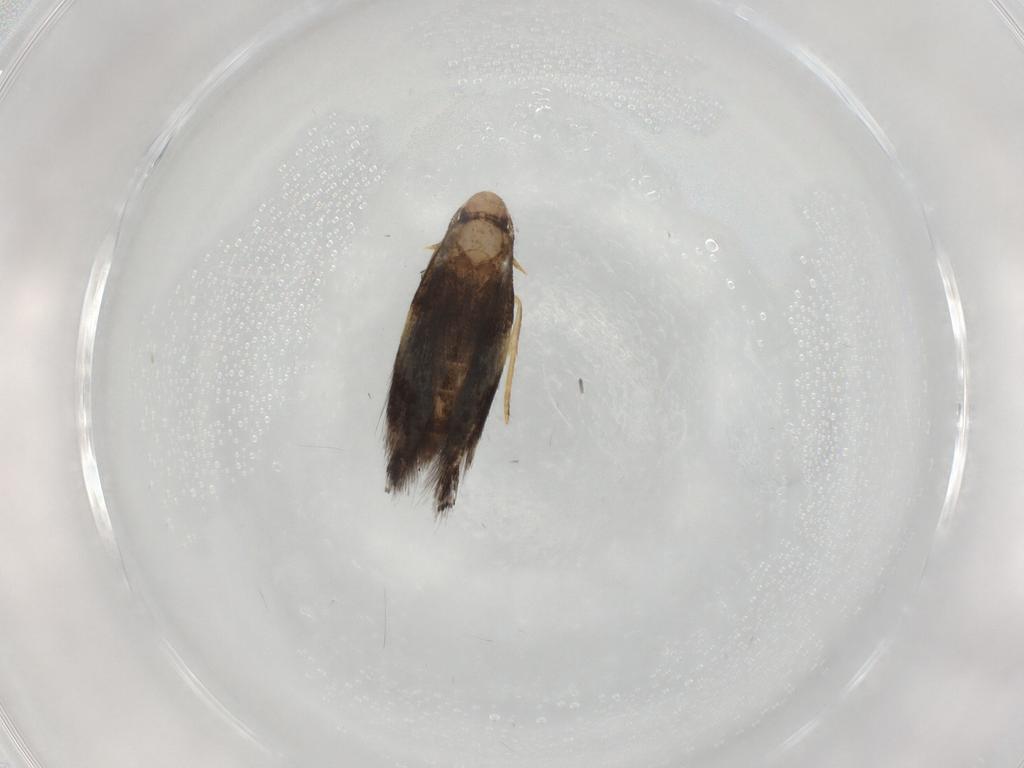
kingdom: Animalia
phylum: Arthropoda
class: Insecta
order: Lepidoptera
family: Elachistidae
